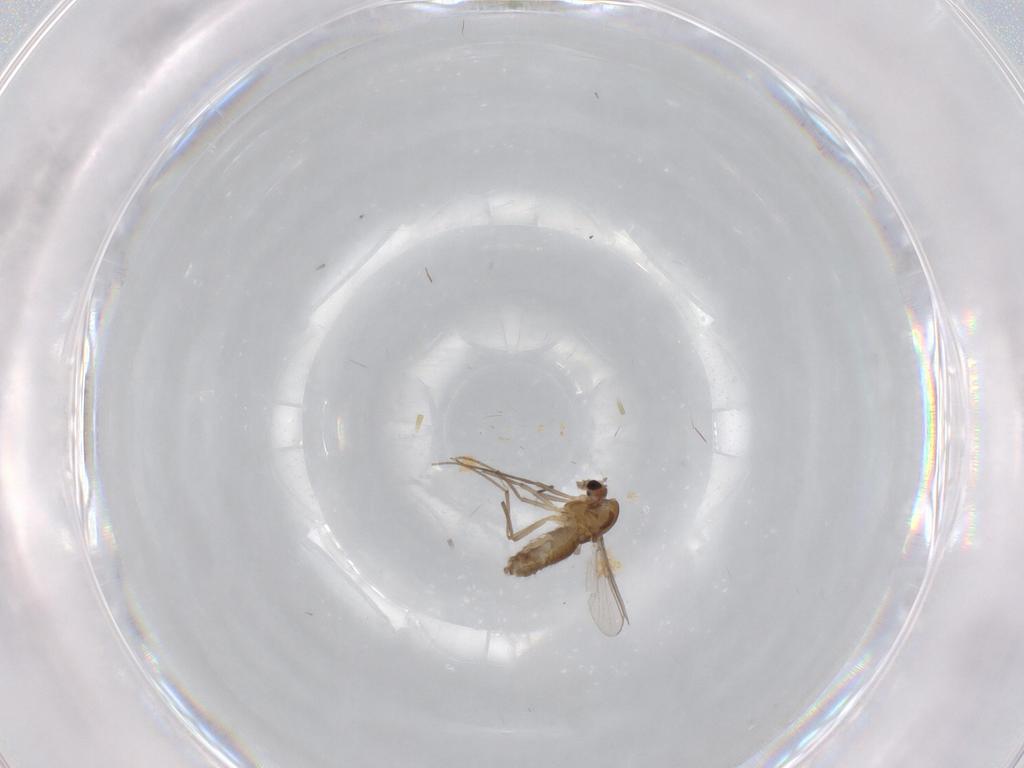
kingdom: Animalia
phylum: Arthropoda
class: Insecta
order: Diptera
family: Chironomidae
